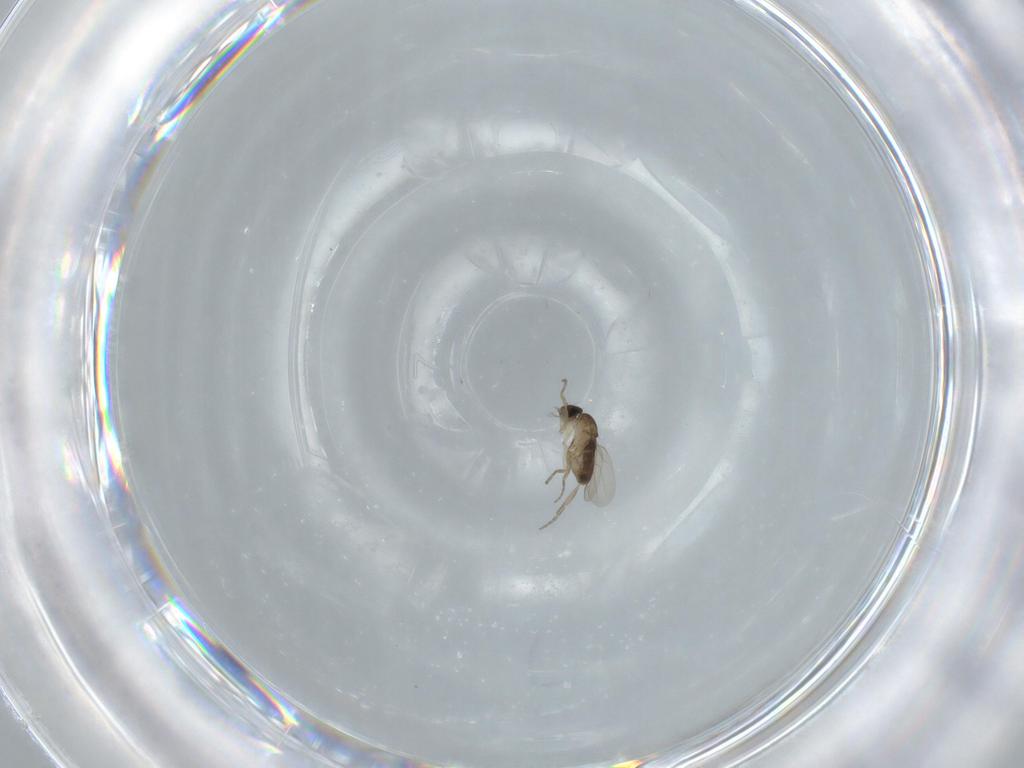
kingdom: Animalia
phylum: Arthropoda
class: Insecta
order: Diptera
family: Phoridae
